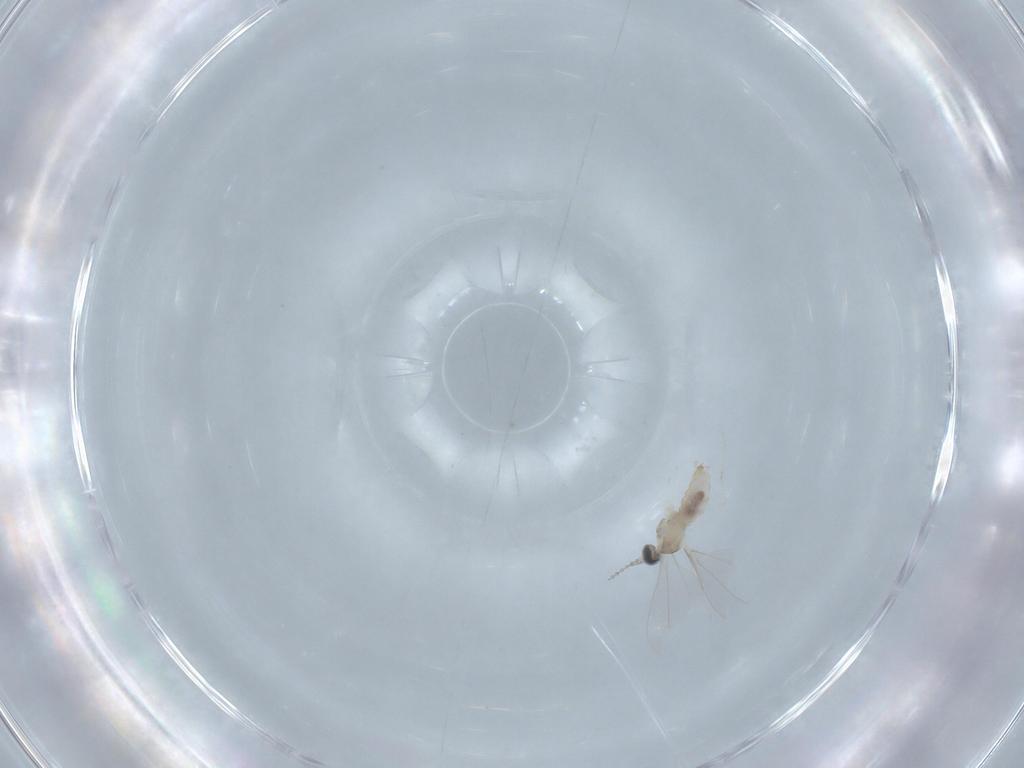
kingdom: Animalia
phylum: Arthropoda
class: Insecta
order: Diptera
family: Cecidomyiidae
